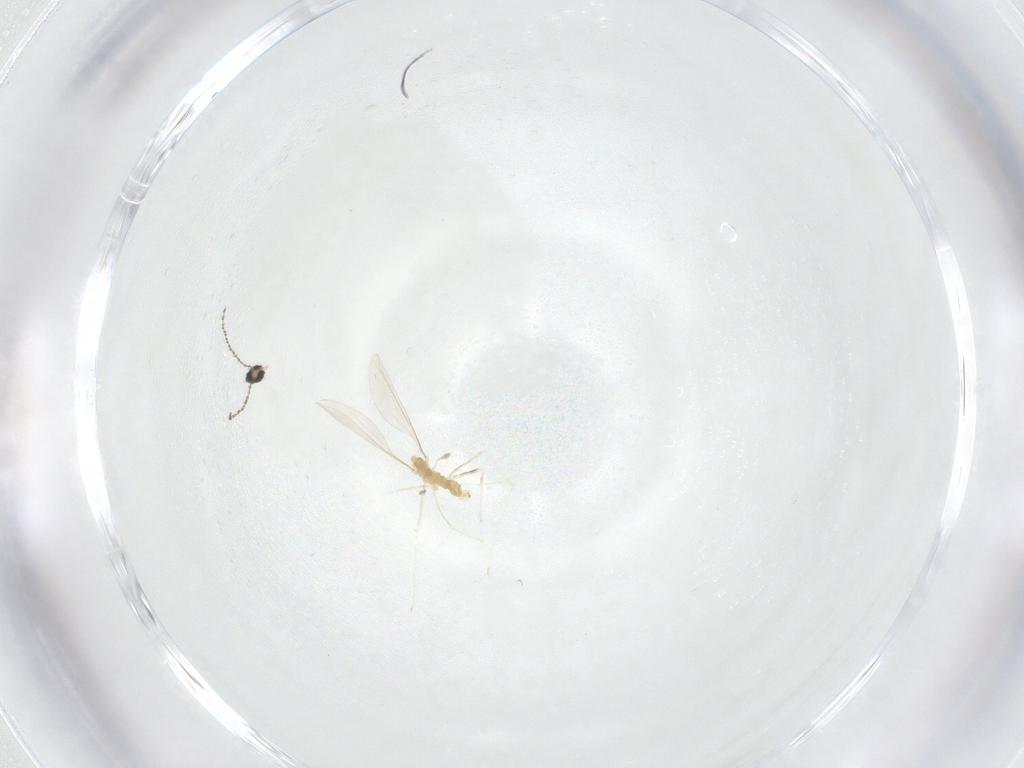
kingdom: Animalia
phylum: Arthropoda
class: Insecta
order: Diptera
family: Cecidomyiidae
